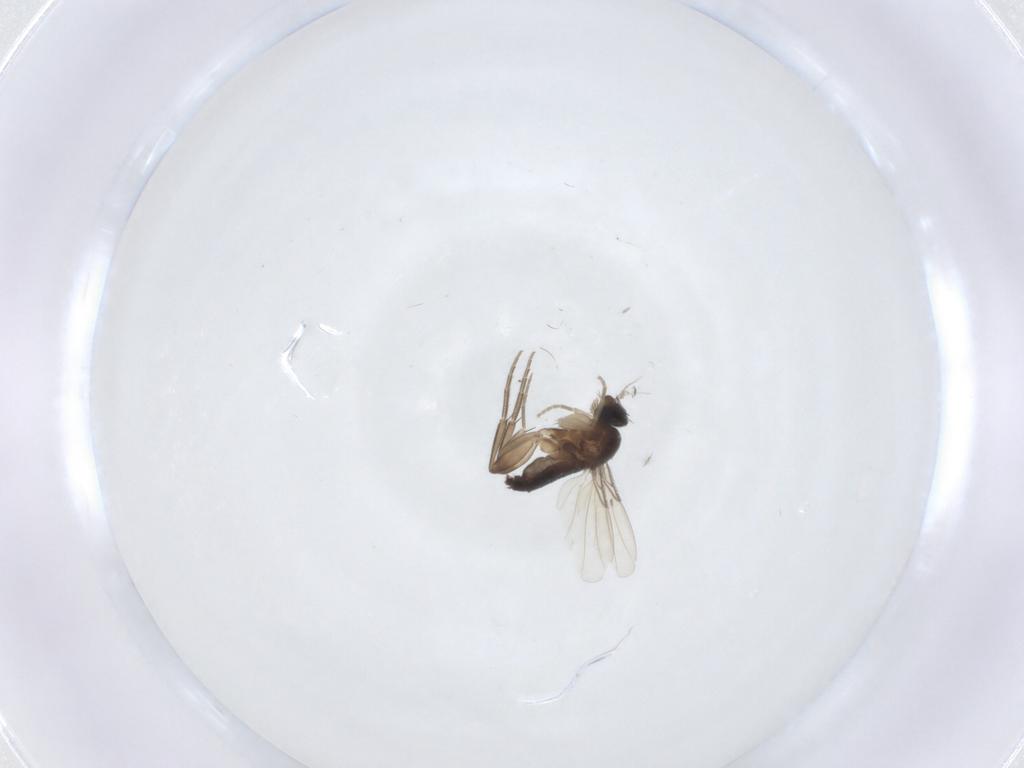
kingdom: Animalia
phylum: Arthropoda
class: Insecta
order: Diptera
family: Phoridae
